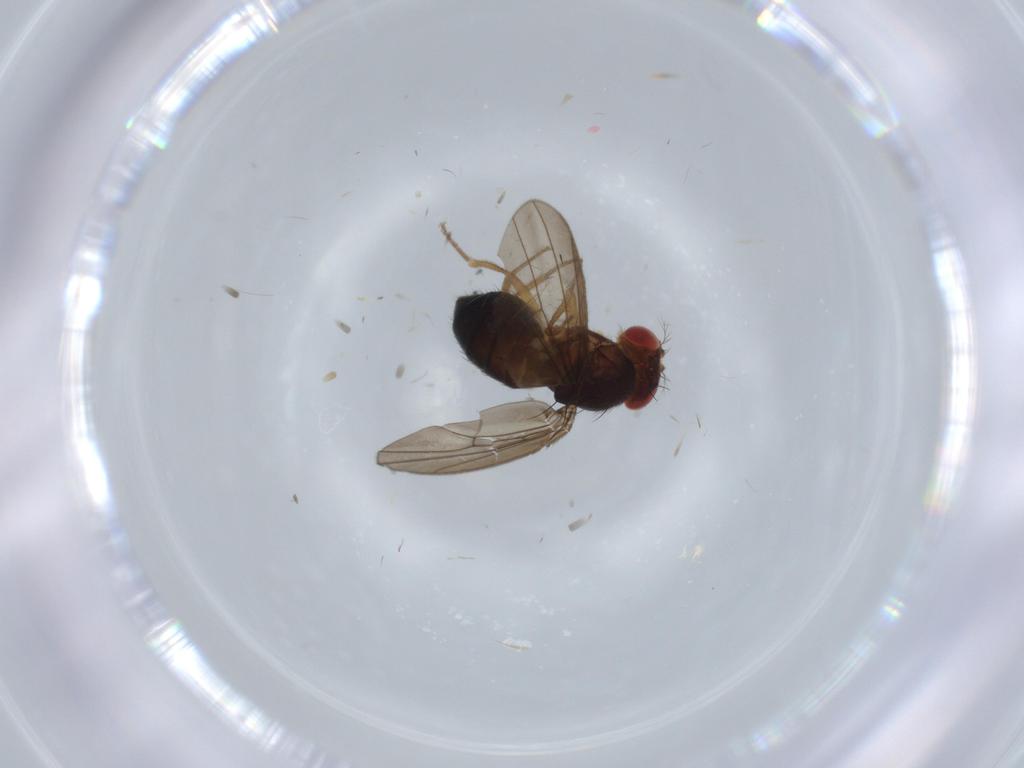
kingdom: Animalia
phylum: Arthropoda
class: Insecta
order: Diptera
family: Drosophilidae
